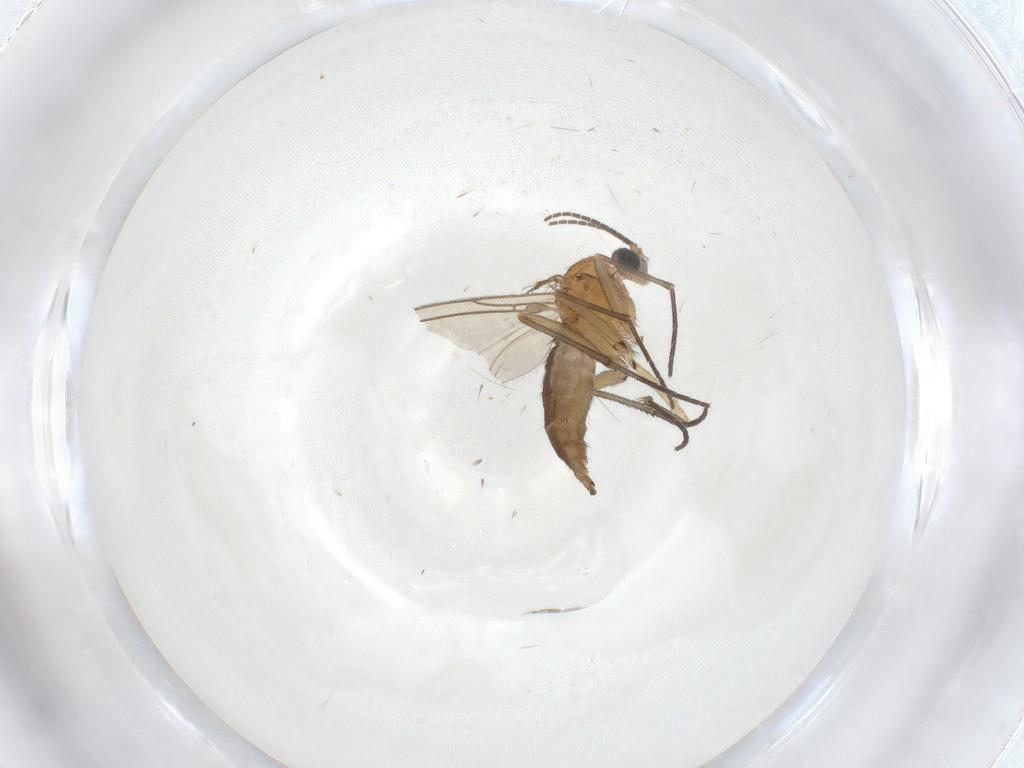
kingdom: Animalia
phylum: Arthropoda
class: Insecta
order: Diptera
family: Sciaridae
